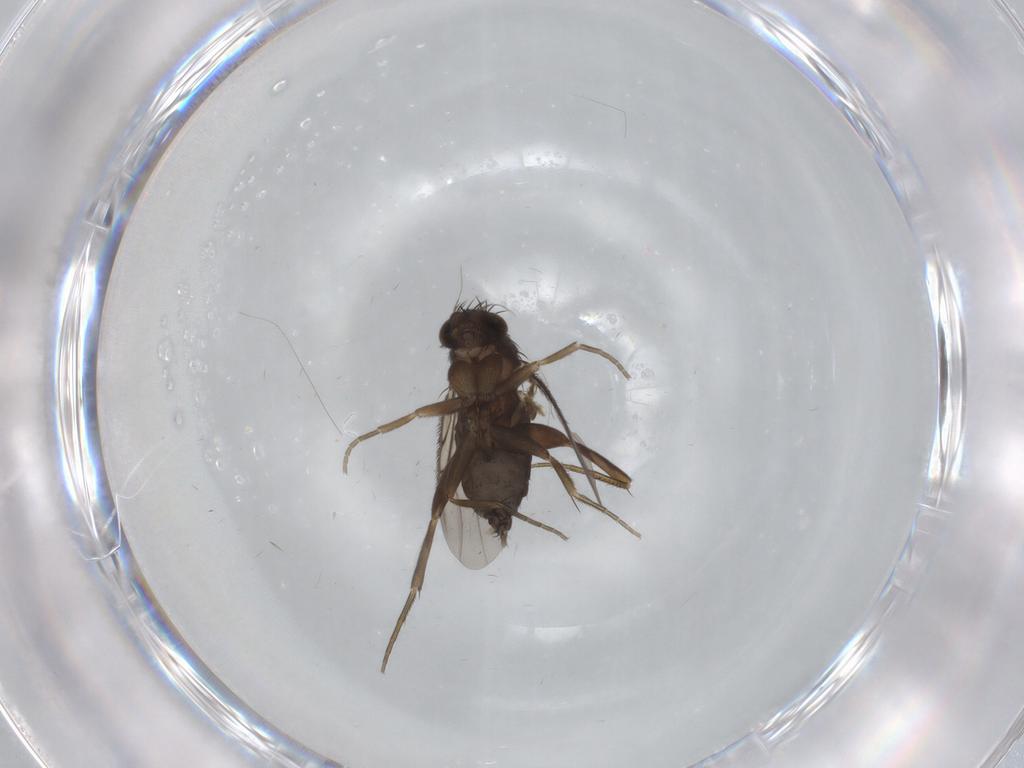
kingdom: Animalia
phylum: Arthropoda
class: Insecta
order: Diptera
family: Phoridae
